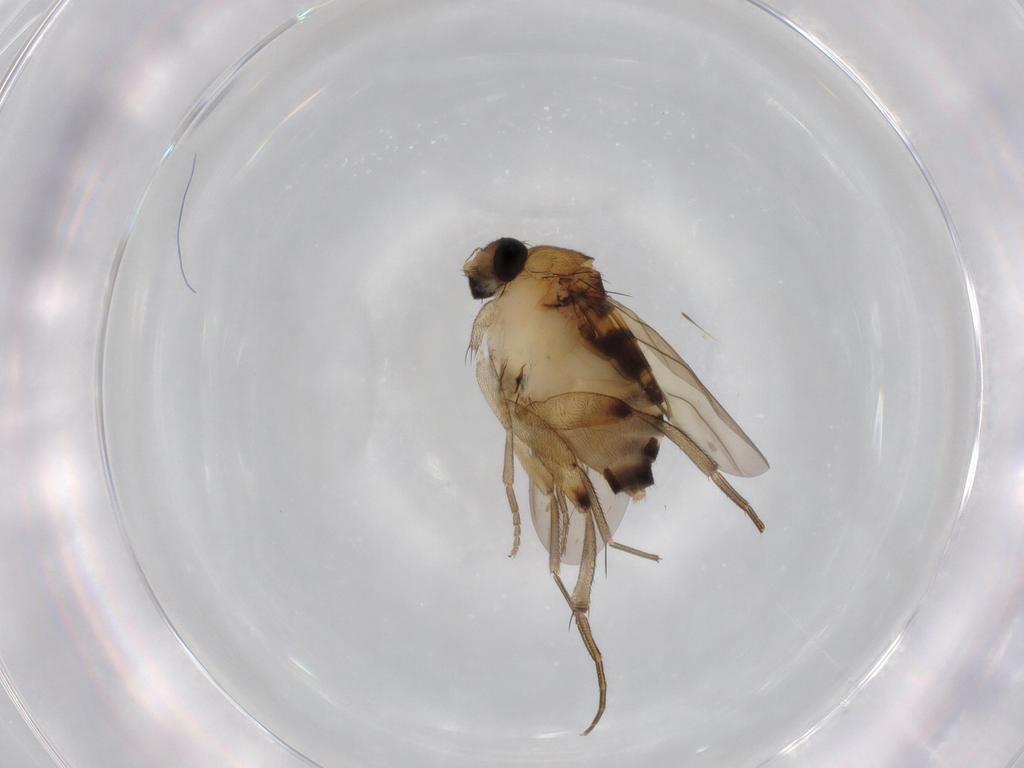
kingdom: Animalia
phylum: Arthropoda
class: Insecta
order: Diptera
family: Phoridae
